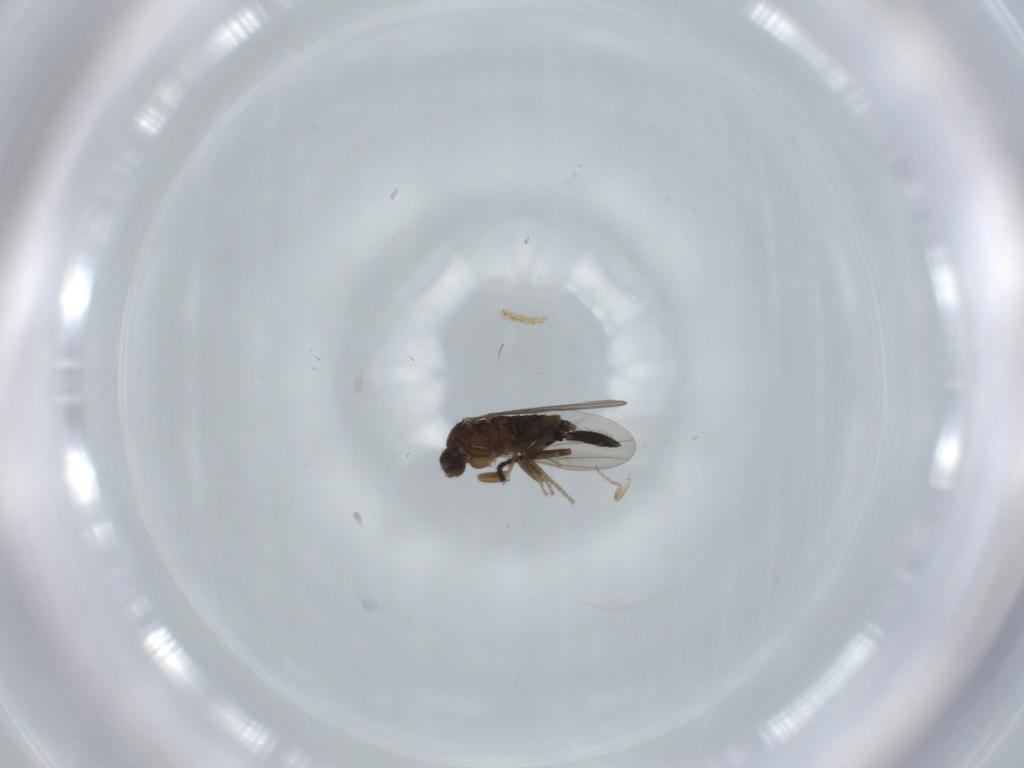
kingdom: Animalia
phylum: Arthropoda
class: Insecta
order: Diptera
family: Phoridae
